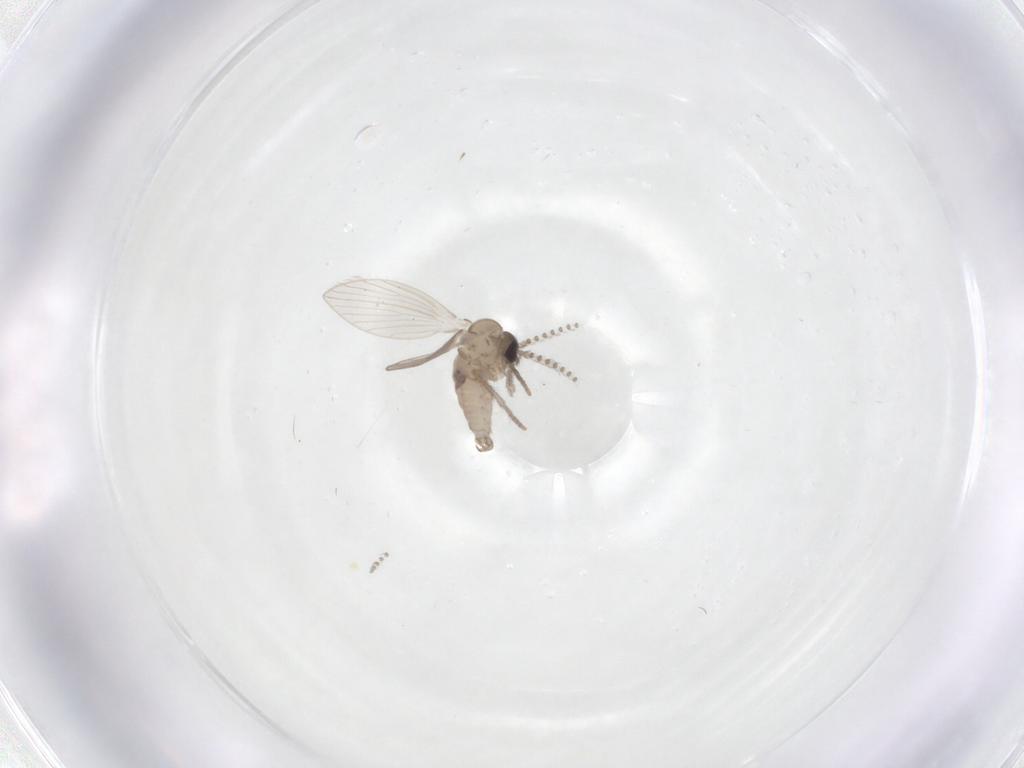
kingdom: Animalia
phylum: Arthropoda
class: Insecta
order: Diptera
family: Psychodidae
